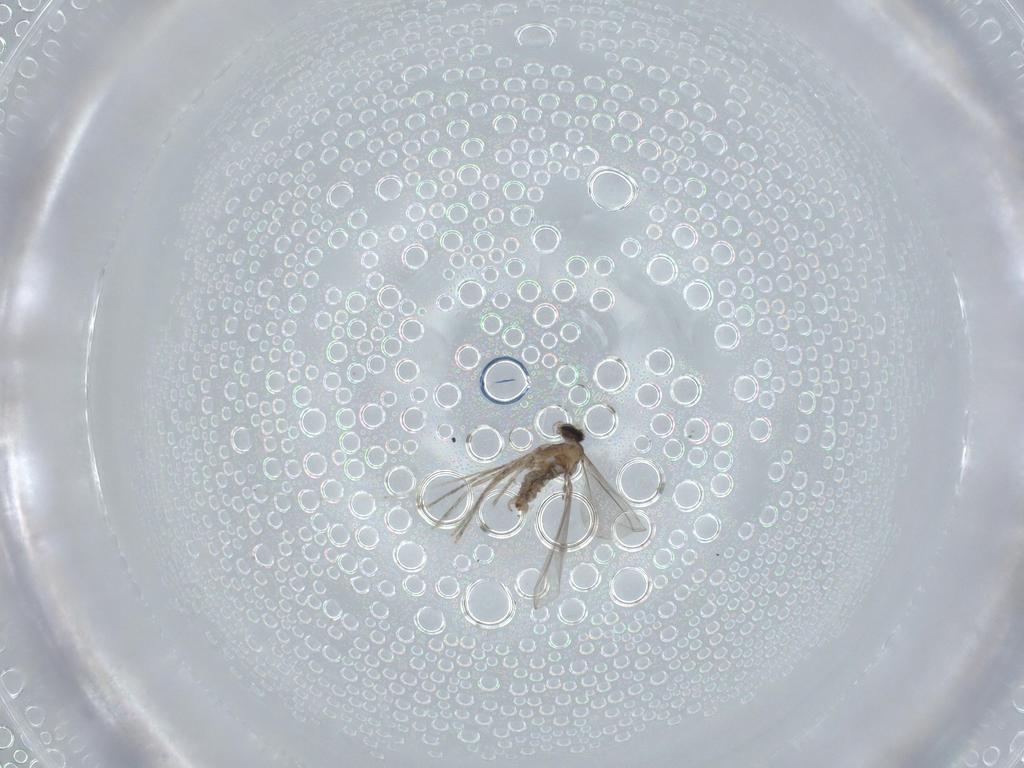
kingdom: Animalia
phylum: Arthropoda
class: Insecta
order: Diptera
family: Cecidomyiidae
